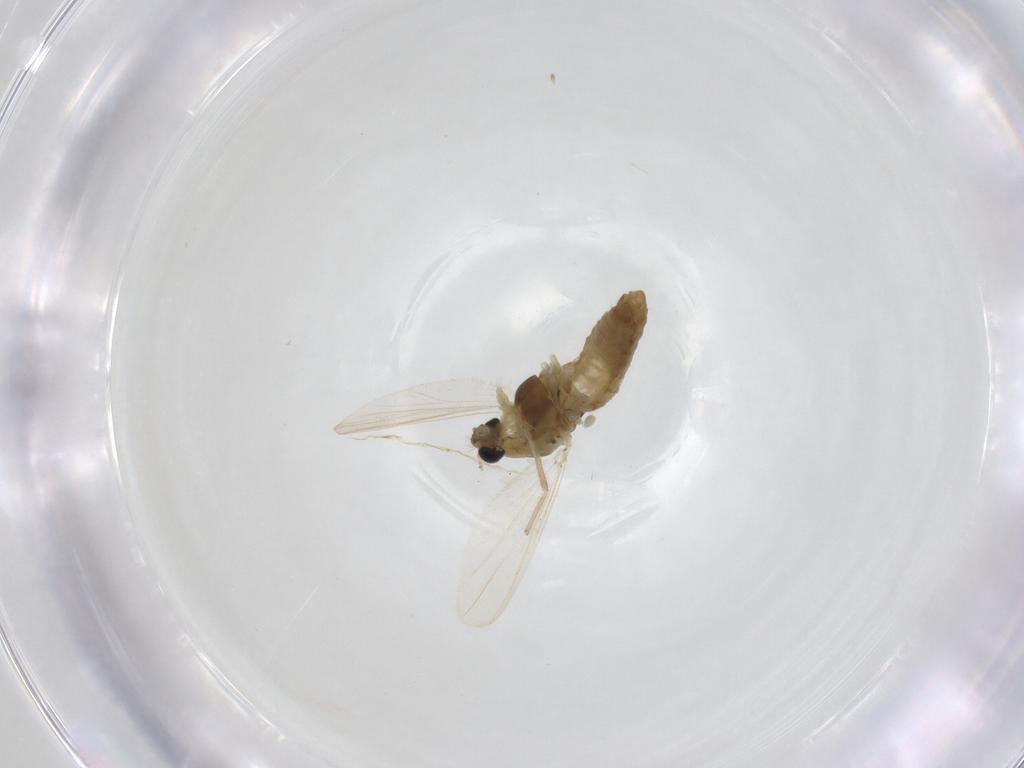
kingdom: Animalia
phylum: Arthropoda
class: Insecta
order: Diptera
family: Chironomidae
